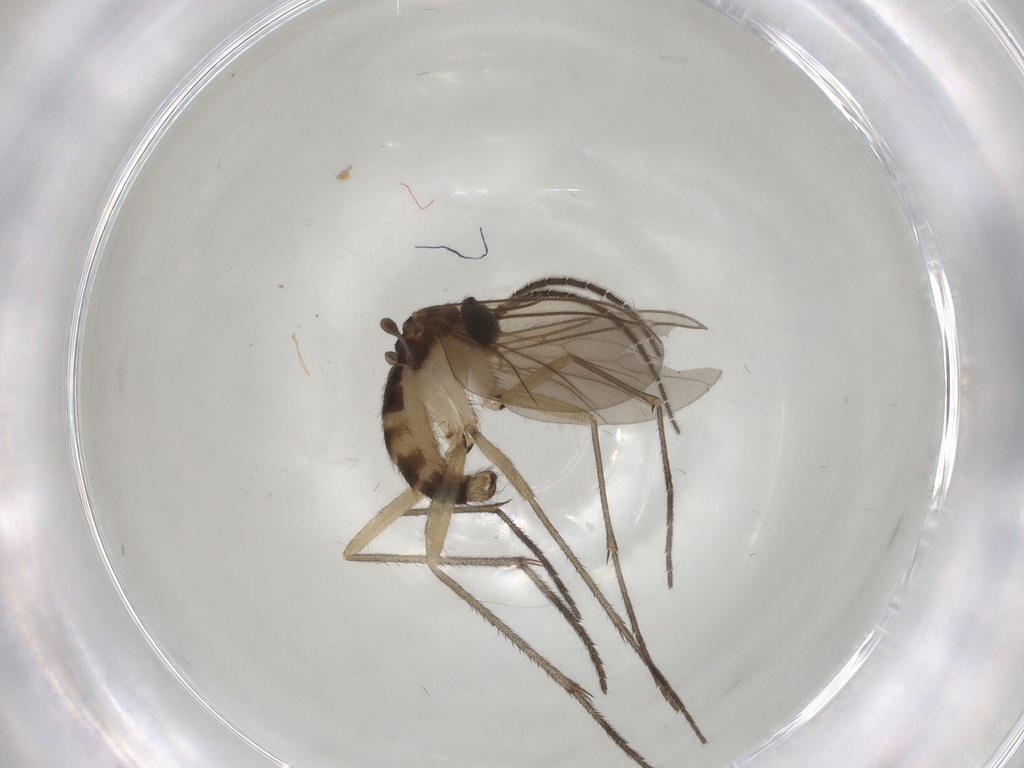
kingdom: Animalia
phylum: Arthropoda
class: Insecta
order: Diptera
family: Sciaridae
